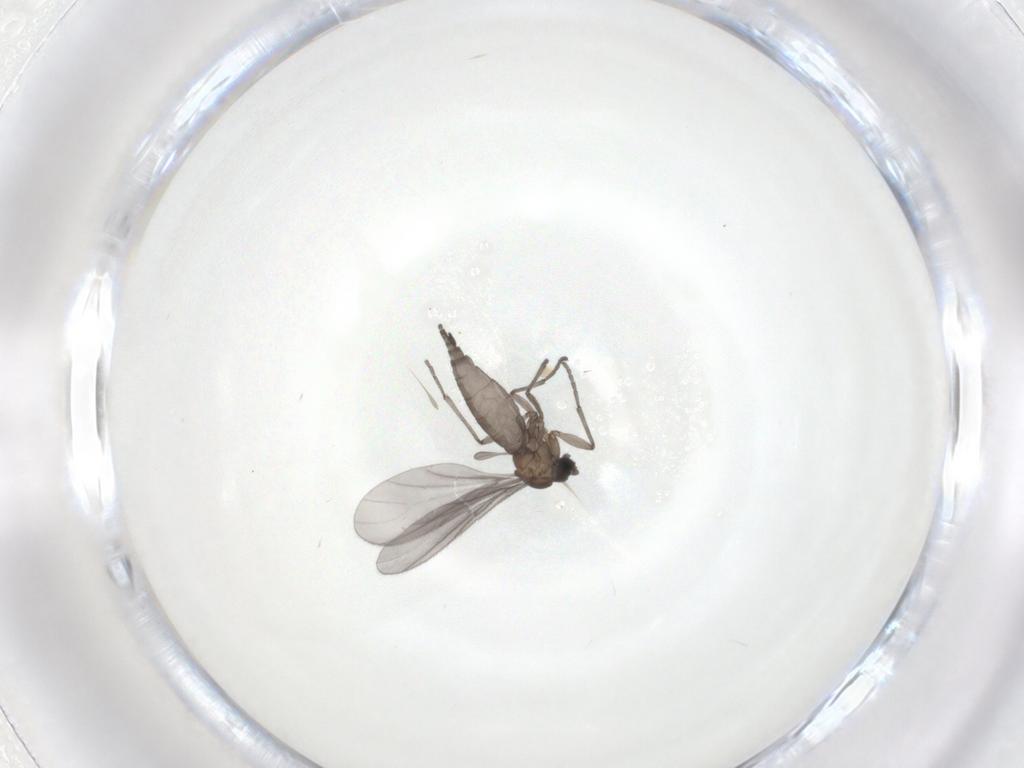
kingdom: Animalia
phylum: Arthropoda
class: Insecta
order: Diptera
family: Sciaridae
